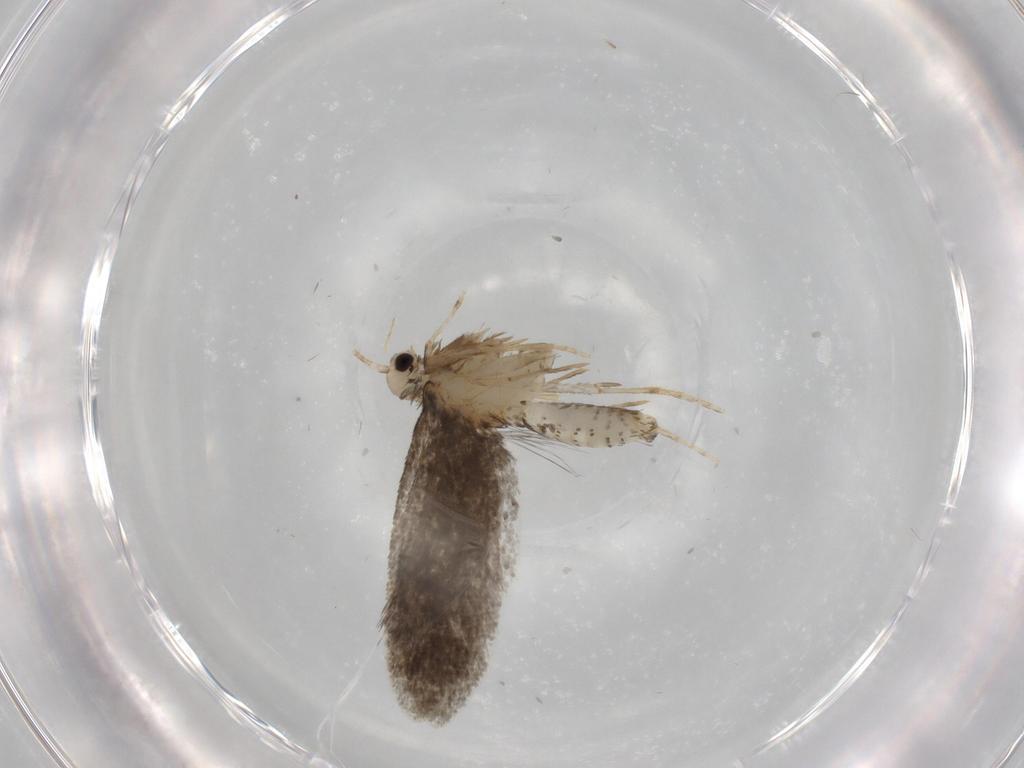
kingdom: Animalia
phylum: Arthropoda
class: Insecta
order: Lepidoptera
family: Psychidae
